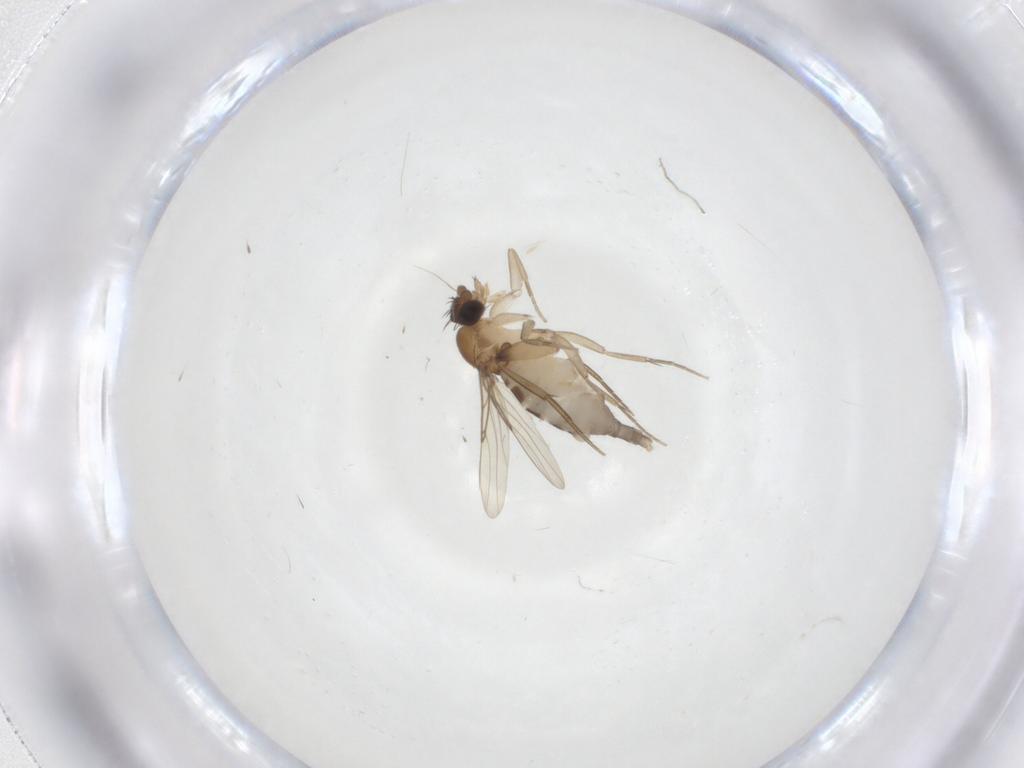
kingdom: Animalia
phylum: Arthropoda
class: Insecta
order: Diptera
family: Phoridae
